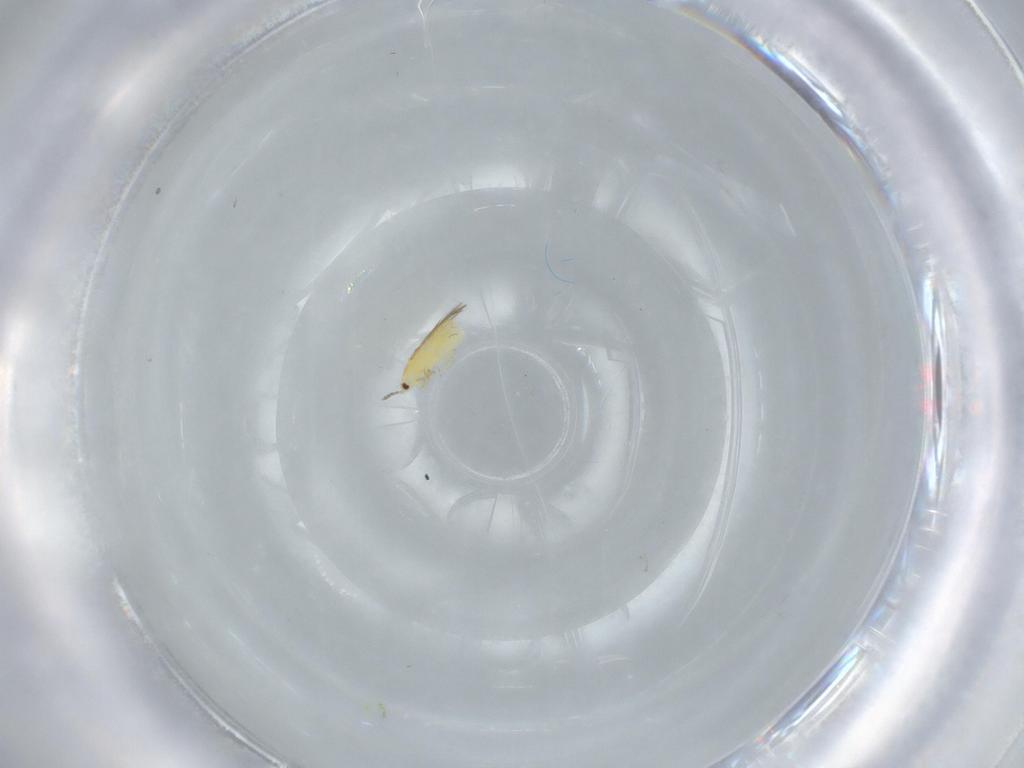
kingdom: Animalia
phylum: Arthropoda
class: Insecta
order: Thysanoptera
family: Thripidae
